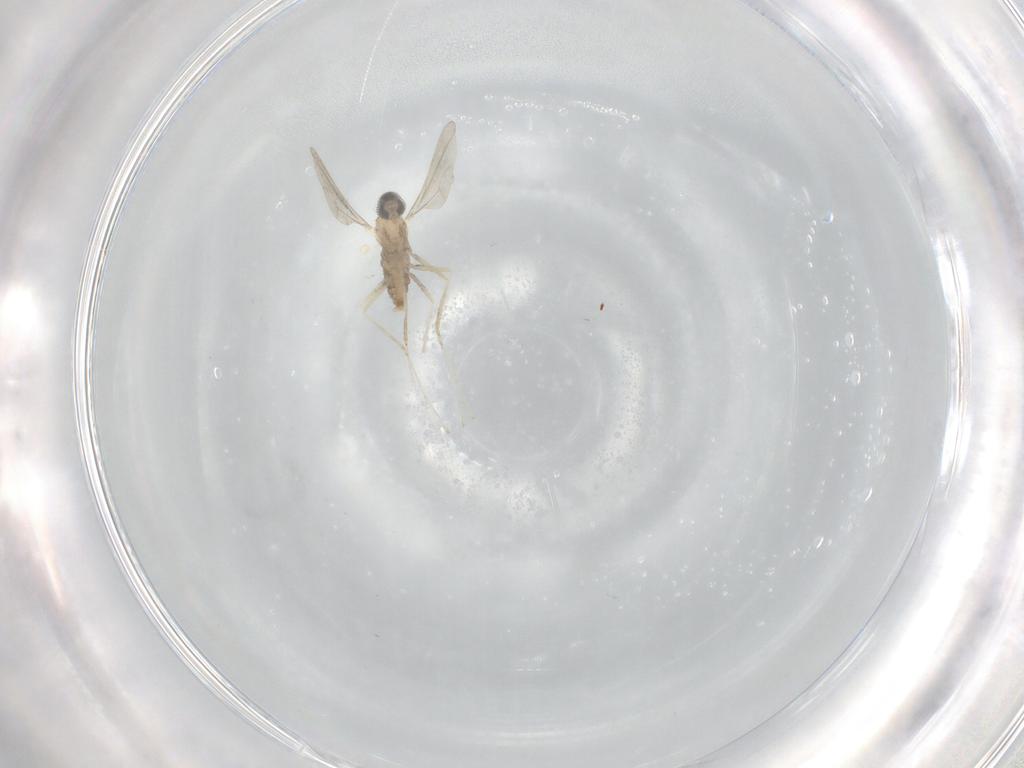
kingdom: Animalia
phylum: Arthropoda
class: Insecta
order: Diptera
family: Cecidomyiidae
